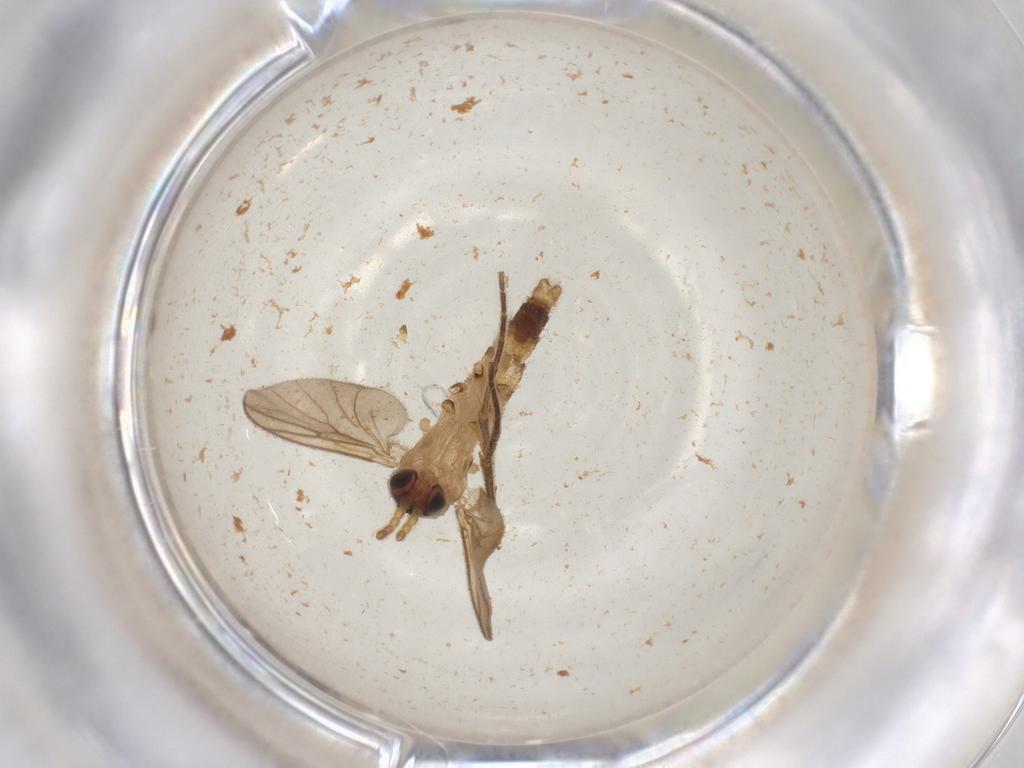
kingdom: Animalia
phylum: Arthropoda
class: Insecta
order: Diptera
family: Mycetophilidae
